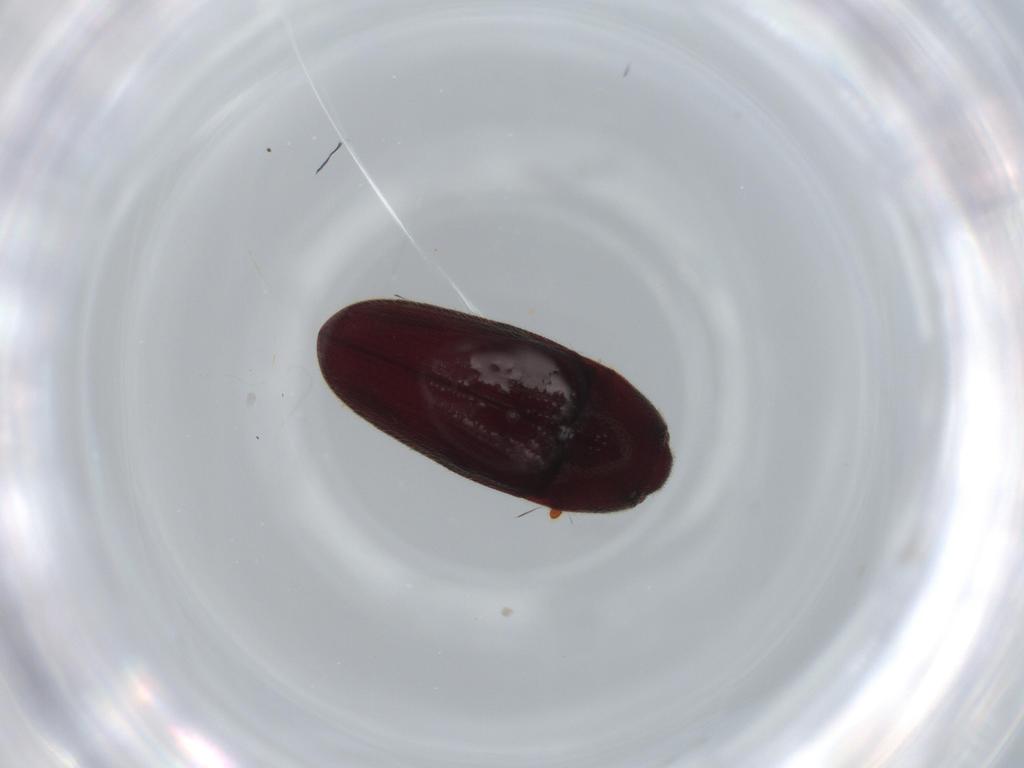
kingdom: Animalia
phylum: Arthropoda
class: Insecta
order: Coleoptera
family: Throscidae
